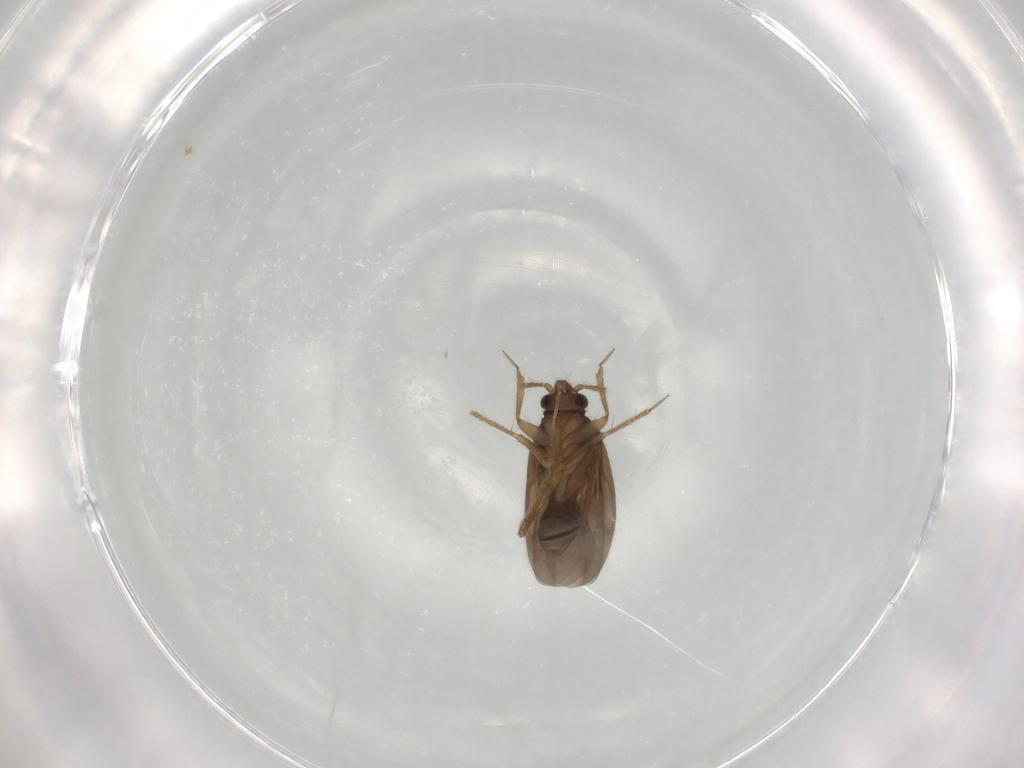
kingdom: Animalia
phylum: Arthropoda
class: Insecta
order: Hemiptera
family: Ceratocombidae
